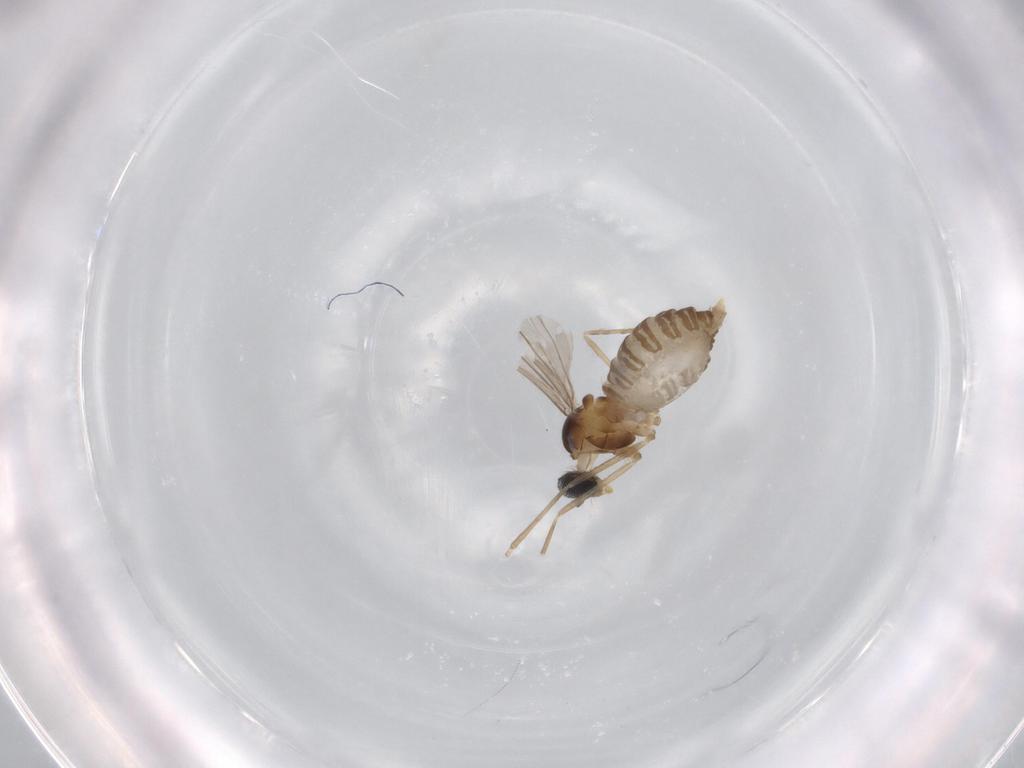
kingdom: Animalia
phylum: Arthropoda
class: Insecta
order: Diptera
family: Cecidomyiidae
